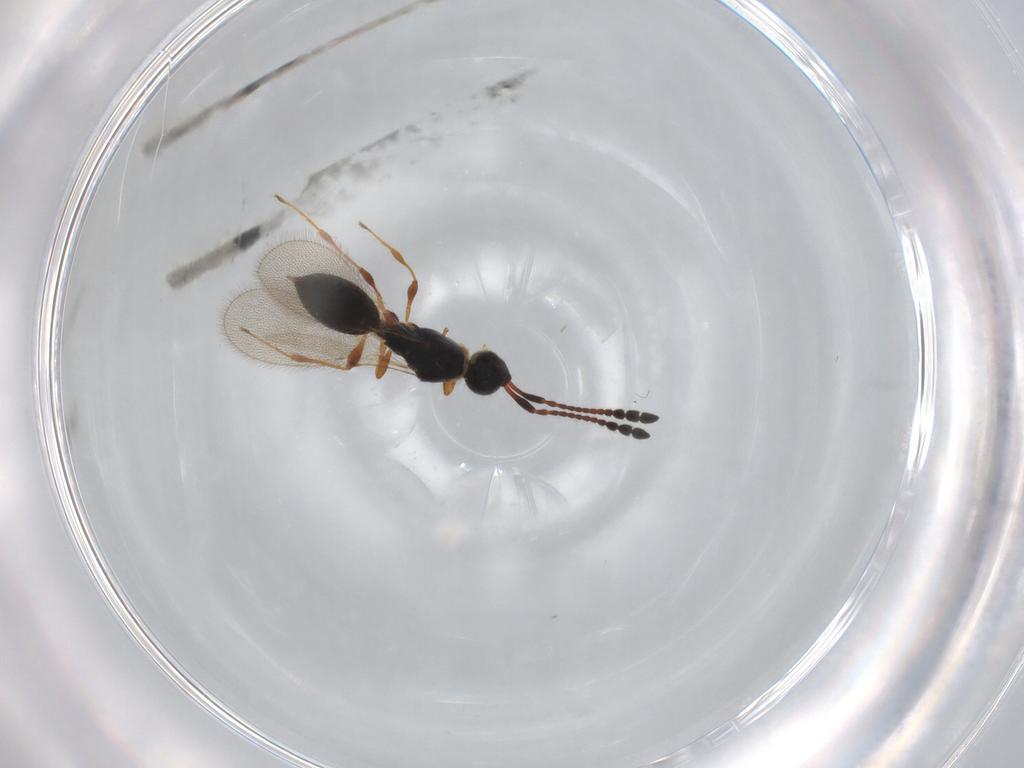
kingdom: Animalia
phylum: Arthropoda
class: Insecta
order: Hymenoptera
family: Diapriidae
